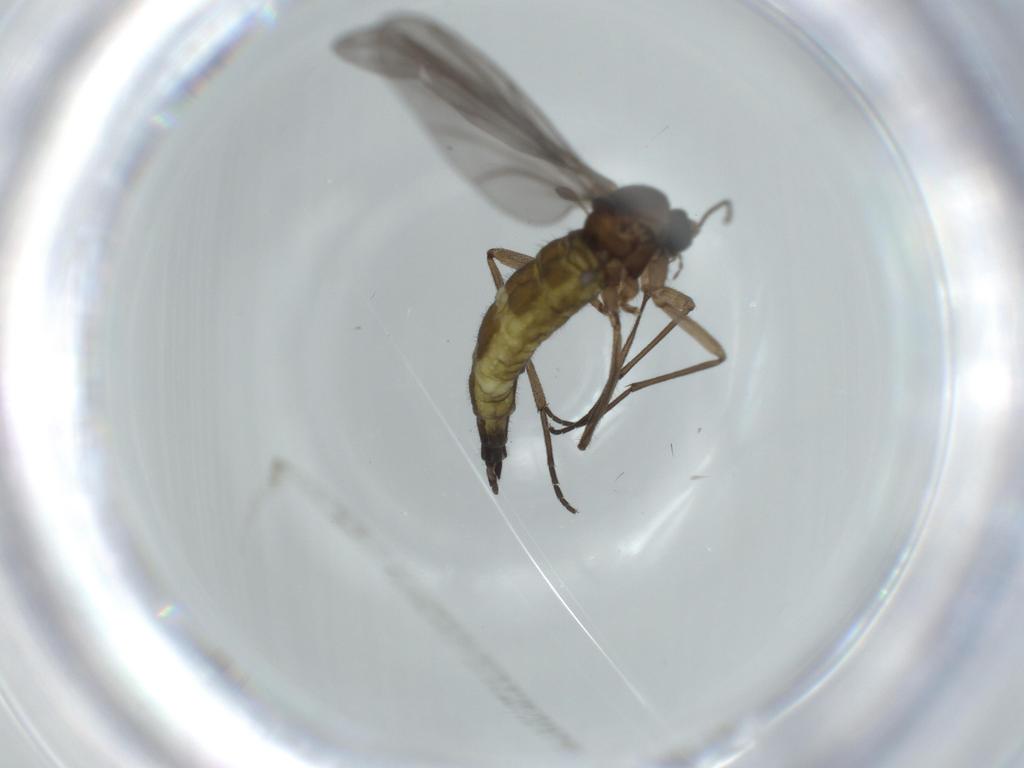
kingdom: Animalia
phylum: Arthropoda
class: Insecta
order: Diptera
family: Sciaridae
